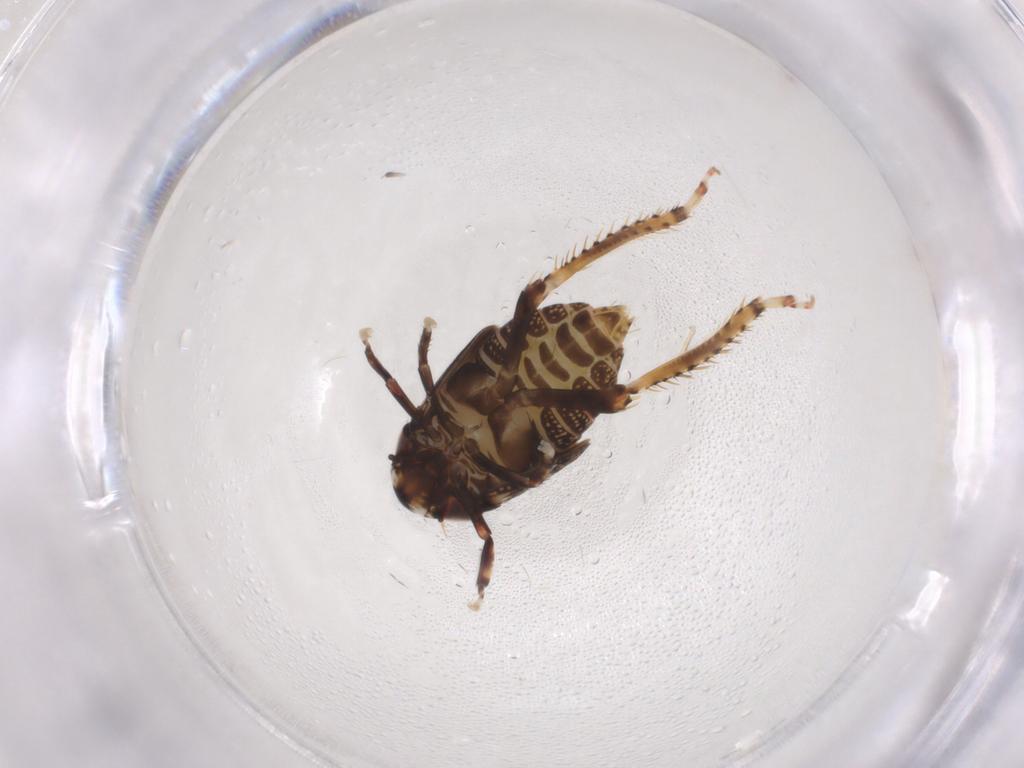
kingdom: Animalia
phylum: Arthropoda
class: Insecta
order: Hemiptera
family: Cicadellidae
